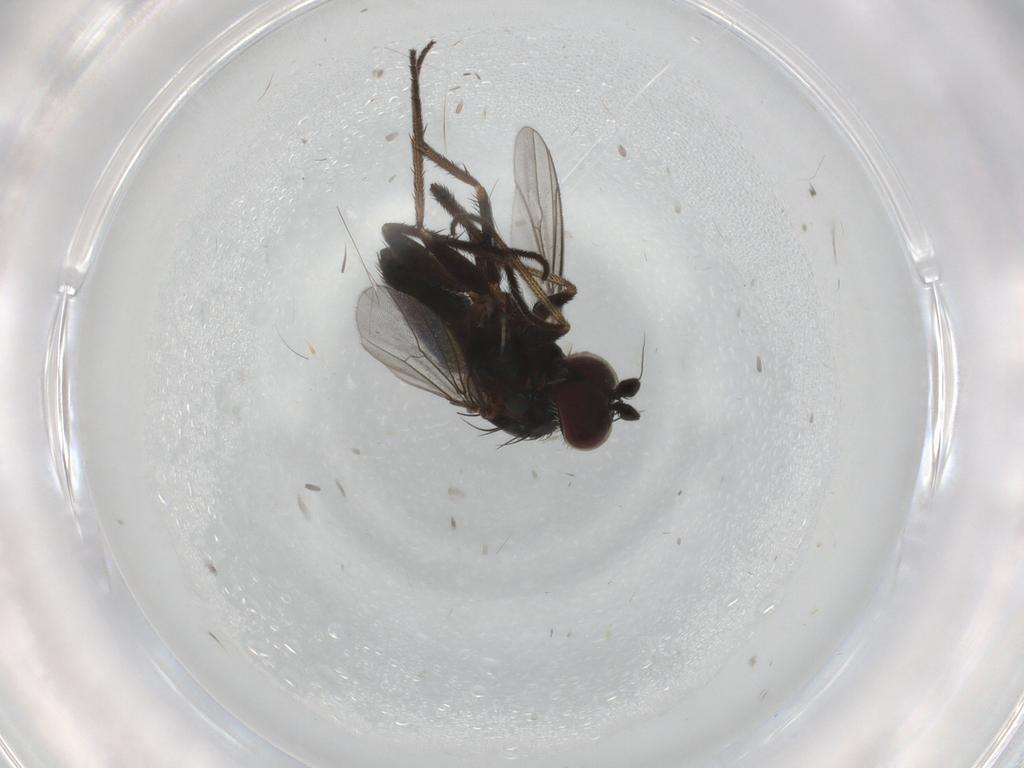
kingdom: Animalia
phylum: Arthropoda
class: Insecta
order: Diptera
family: Dolichopodidae
